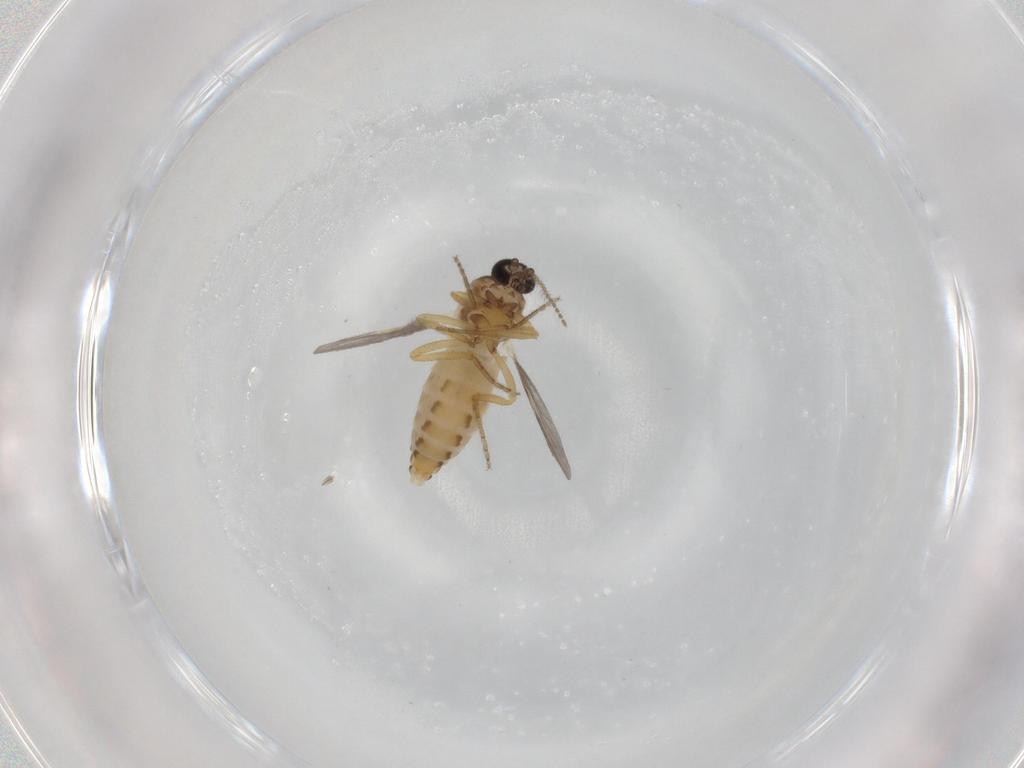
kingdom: Animalia
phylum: Arthropoda
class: Insecta
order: Diptera
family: Ceratopogonidae
